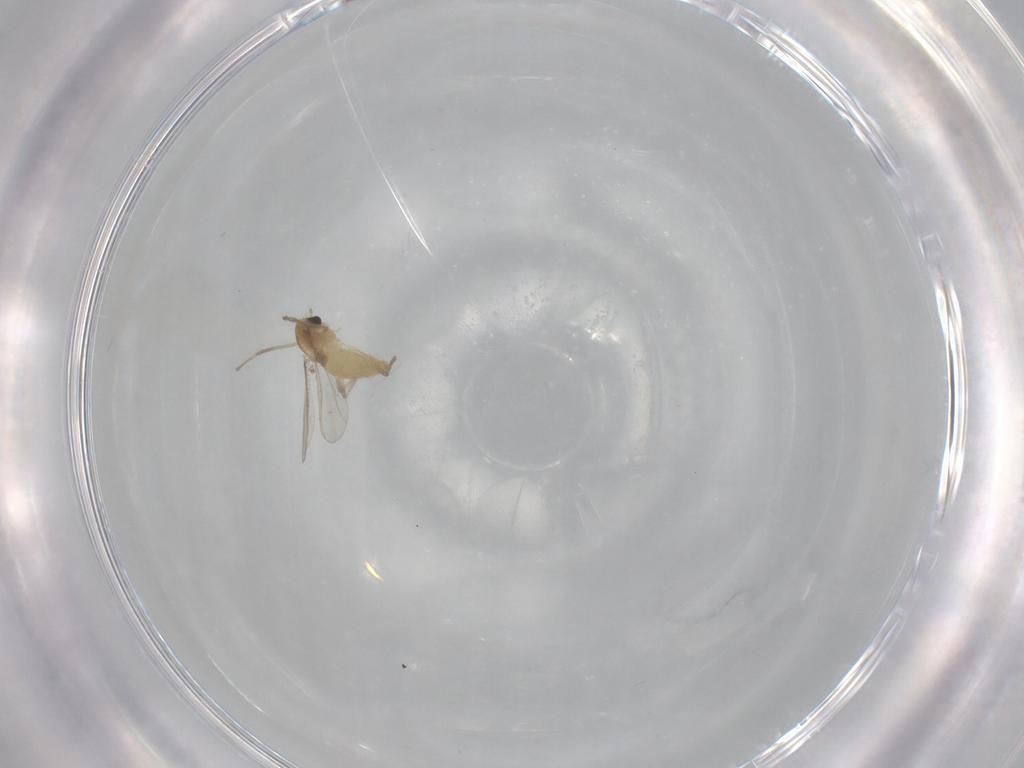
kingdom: Animalia
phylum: Arthropoda
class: Insecta
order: Diptera
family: Chironomidae
